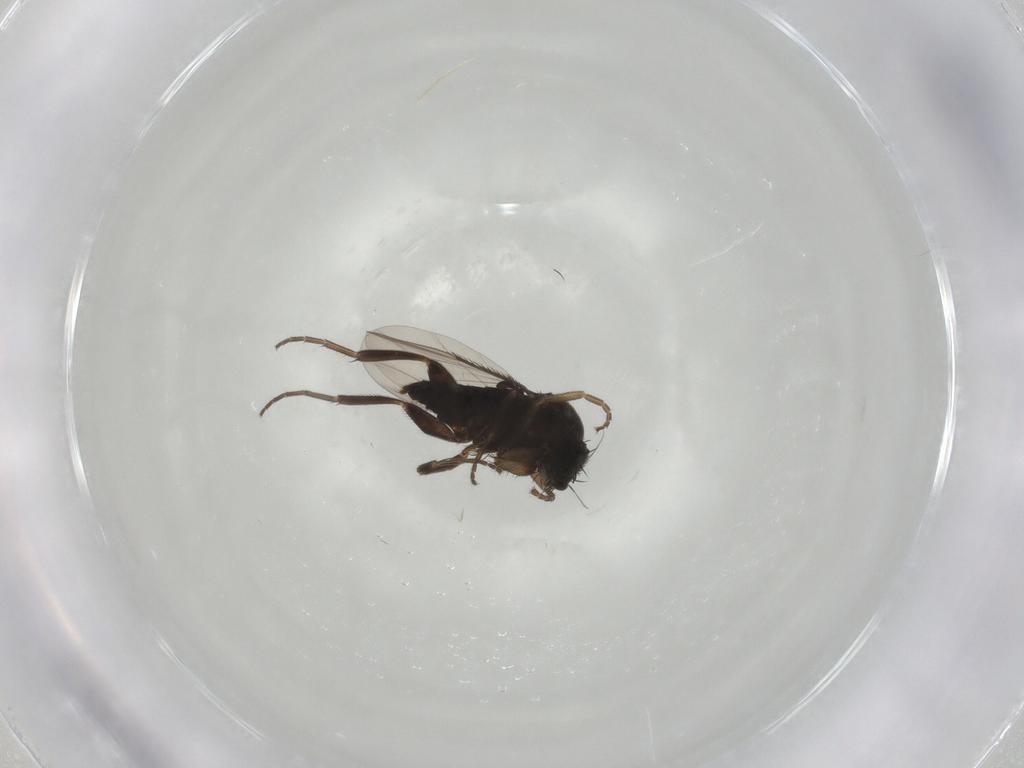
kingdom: Animalia
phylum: Arthropoda
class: Insecta
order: Diptera
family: Phoridae
